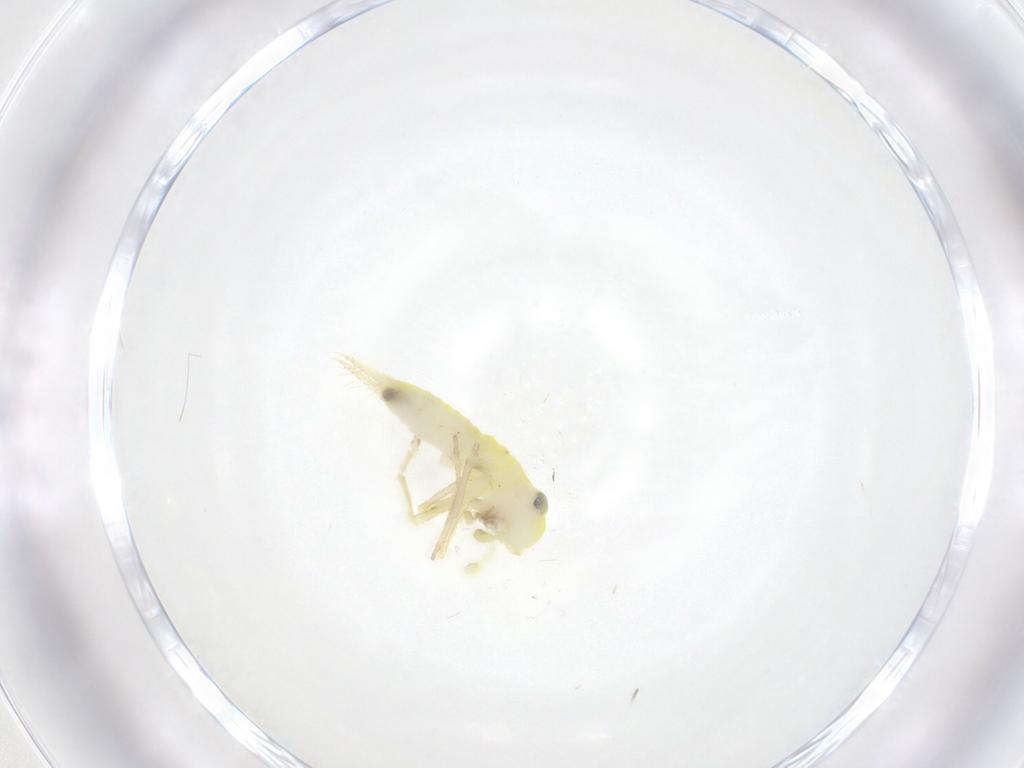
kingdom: Animalia
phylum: Arthropoda
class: Insecta
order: Orthoptera
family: Trigonidiidae
